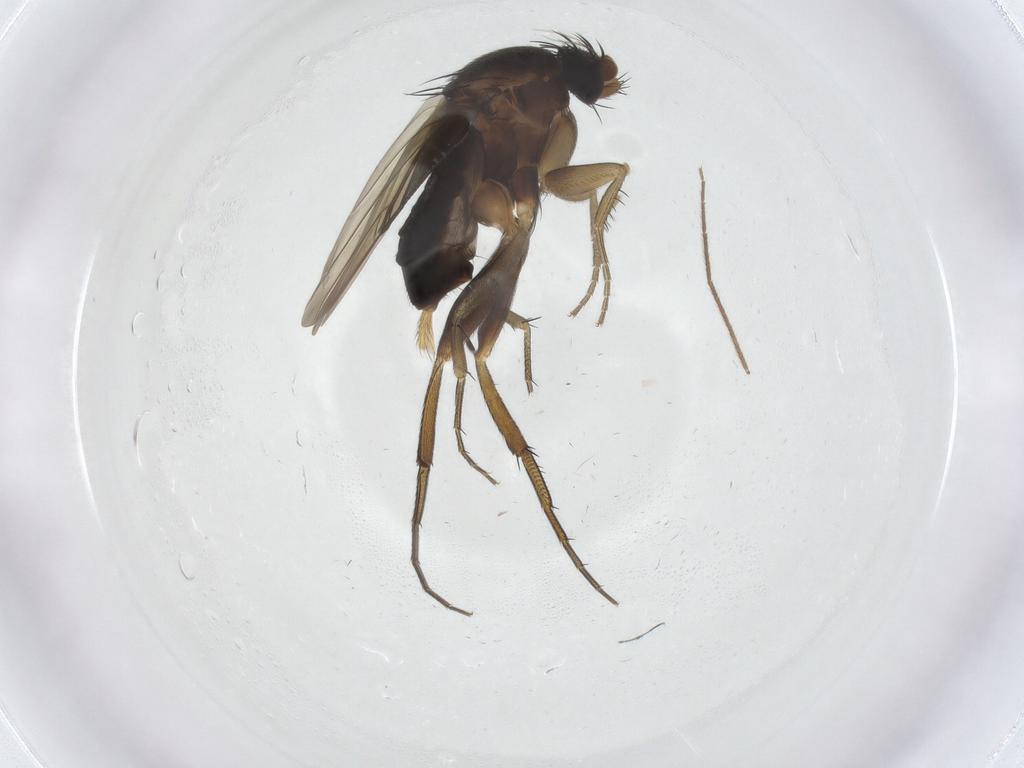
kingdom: Animalia
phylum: Arthropoda
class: Insecta
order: Diptera
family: Phoridae
